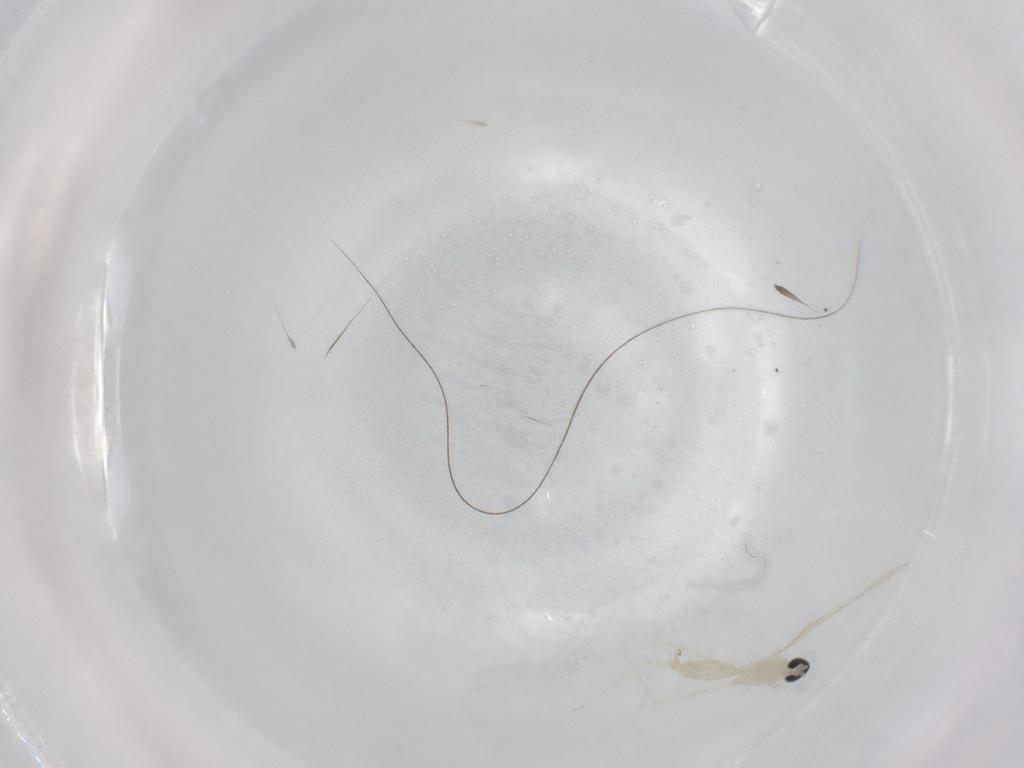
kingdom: Animalia
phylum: Arthropoda
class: Insecta
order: Diptera
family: Cecidomyiidae
